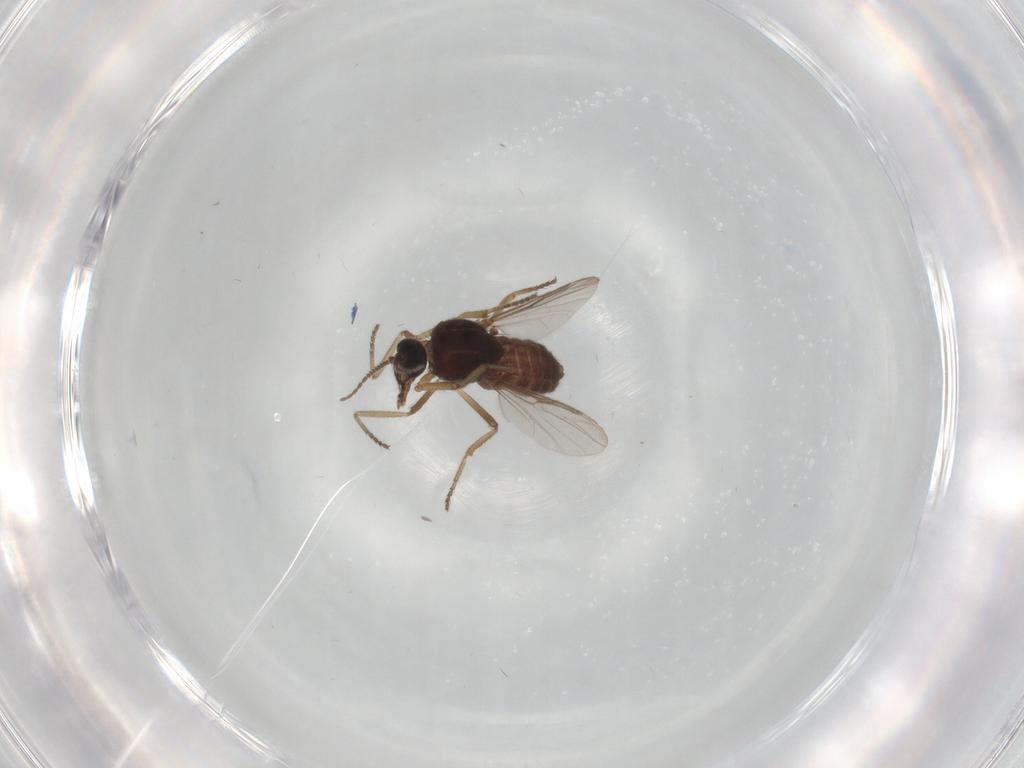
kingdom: Animalia
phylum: Arthropoda
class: Insecta
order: Diptera
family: Ceratopogonidae
